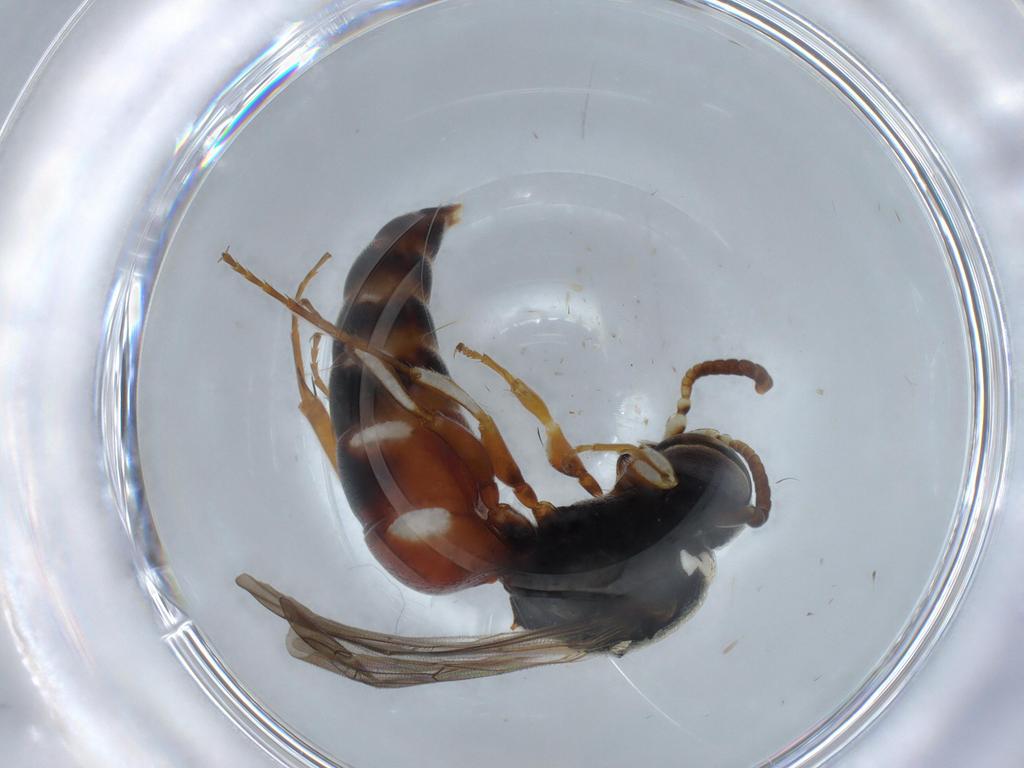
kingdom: Animalia
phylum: Arthropoda
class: Insecta
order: Hymenoptera
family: Bembicidae
